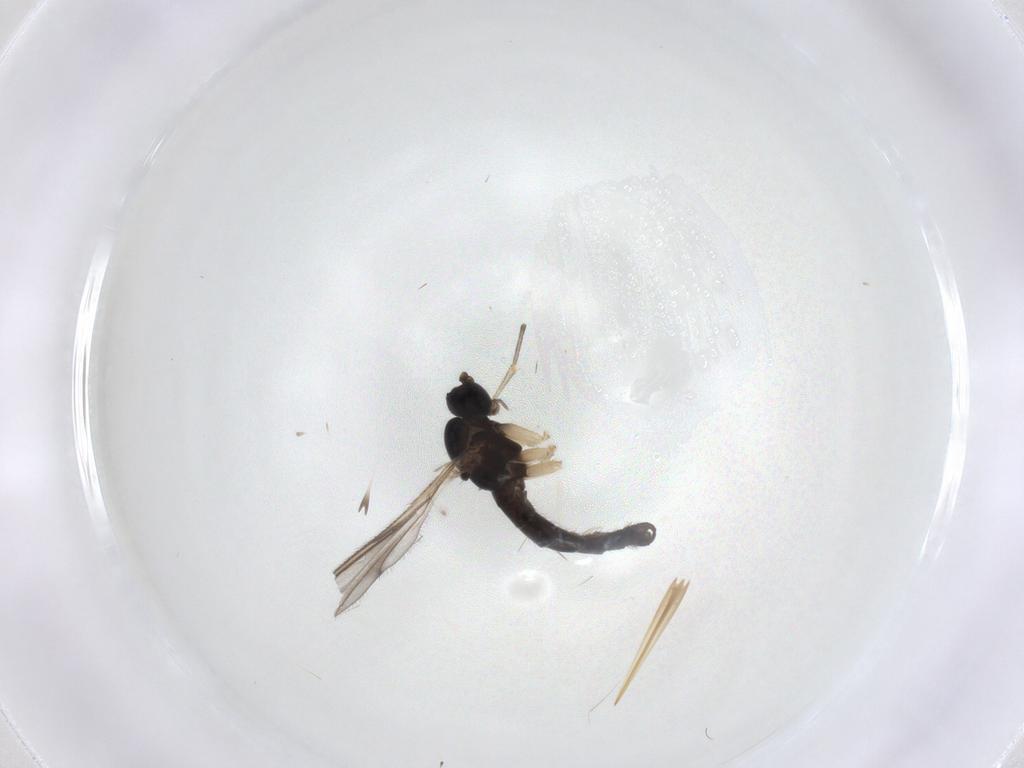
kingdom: Animalia
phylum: Arthropoda
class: Insecta
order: Diptera
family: Sciaridae
